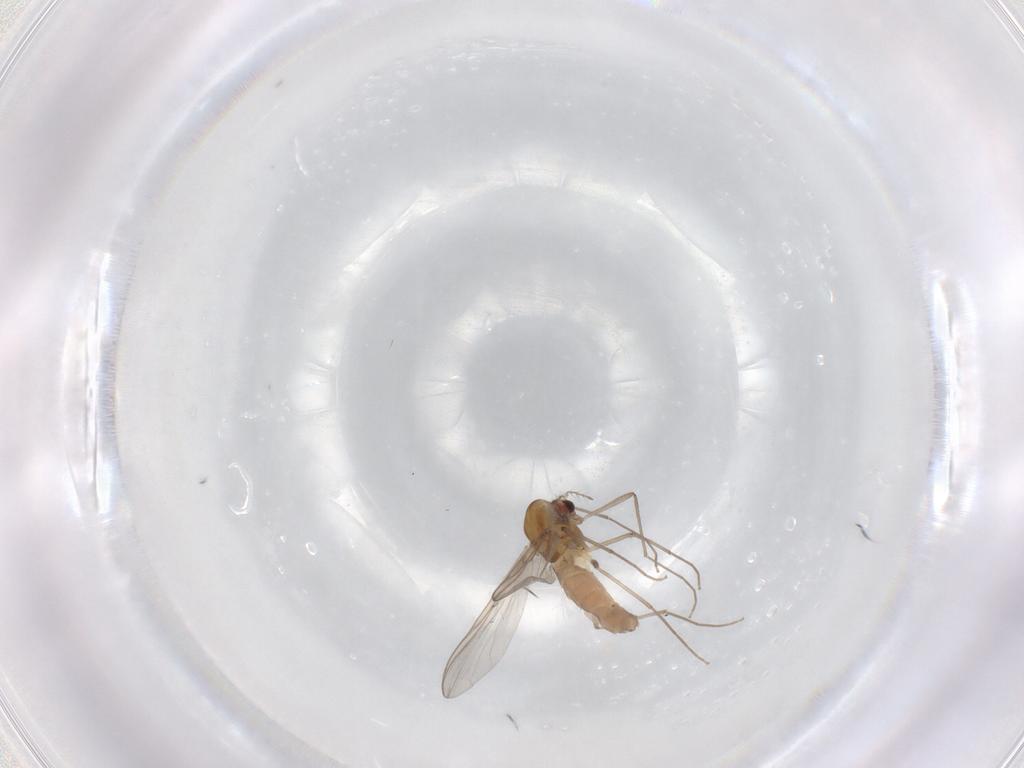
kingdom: Animalia
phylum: Arthropoda
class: Insecta
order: Diptera
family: Chironomidae
